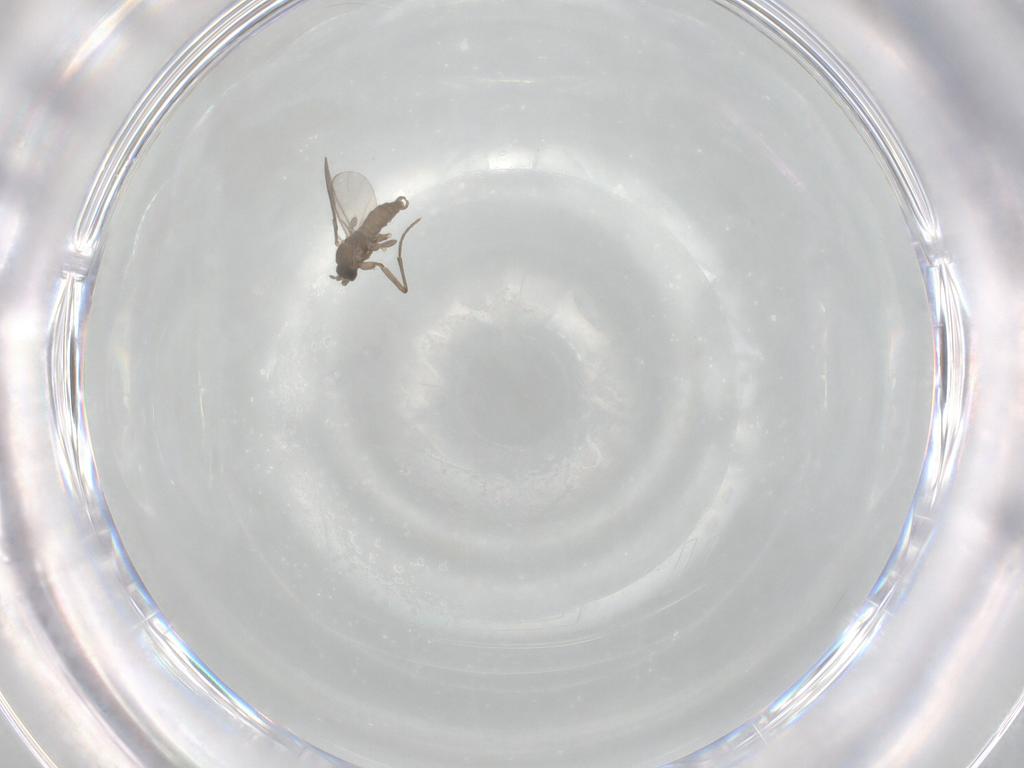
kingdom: Animalia
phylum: Arthropoda
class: Insecta
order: Diptera
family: Sciaridae
